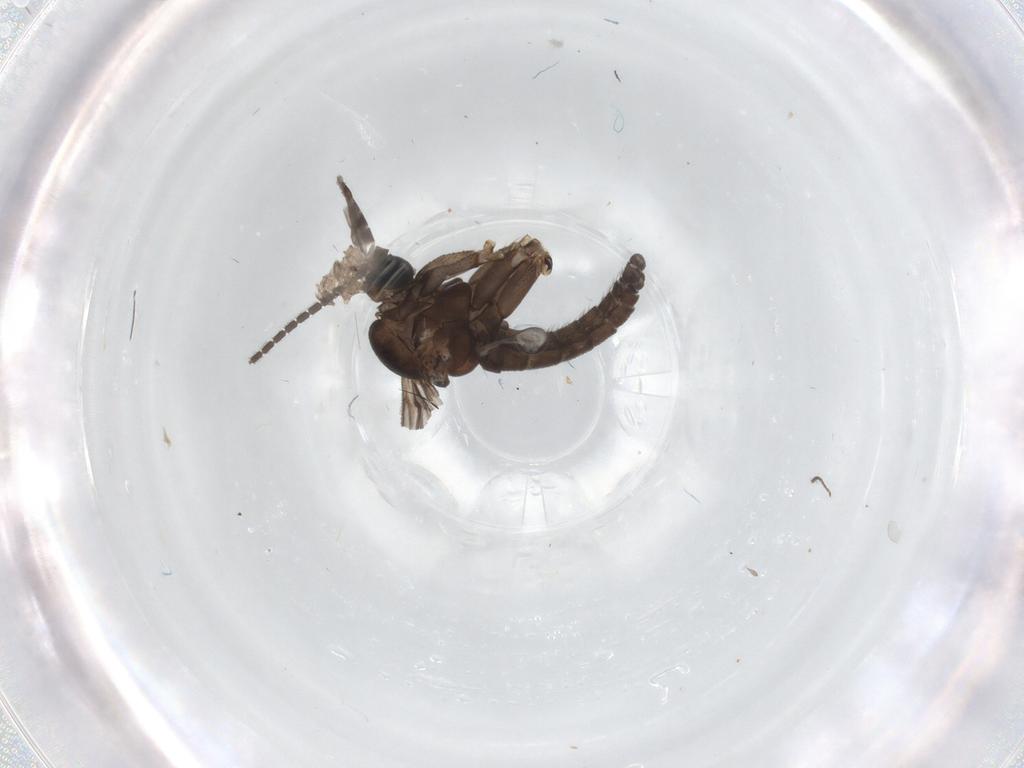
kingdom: Animalia
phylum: Arthropoda
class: Insecta
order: Diptera
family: Sciaridae
